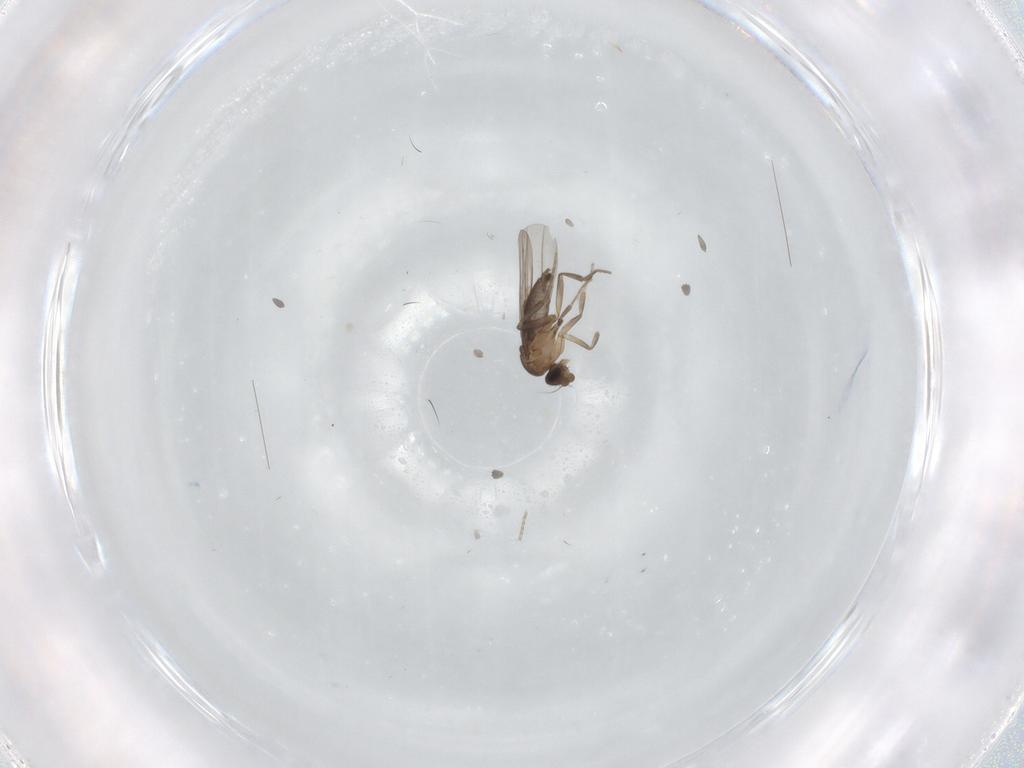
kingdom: Animalia
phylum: Arthropoda
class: Insecta
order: Diptera
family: Phoridae
